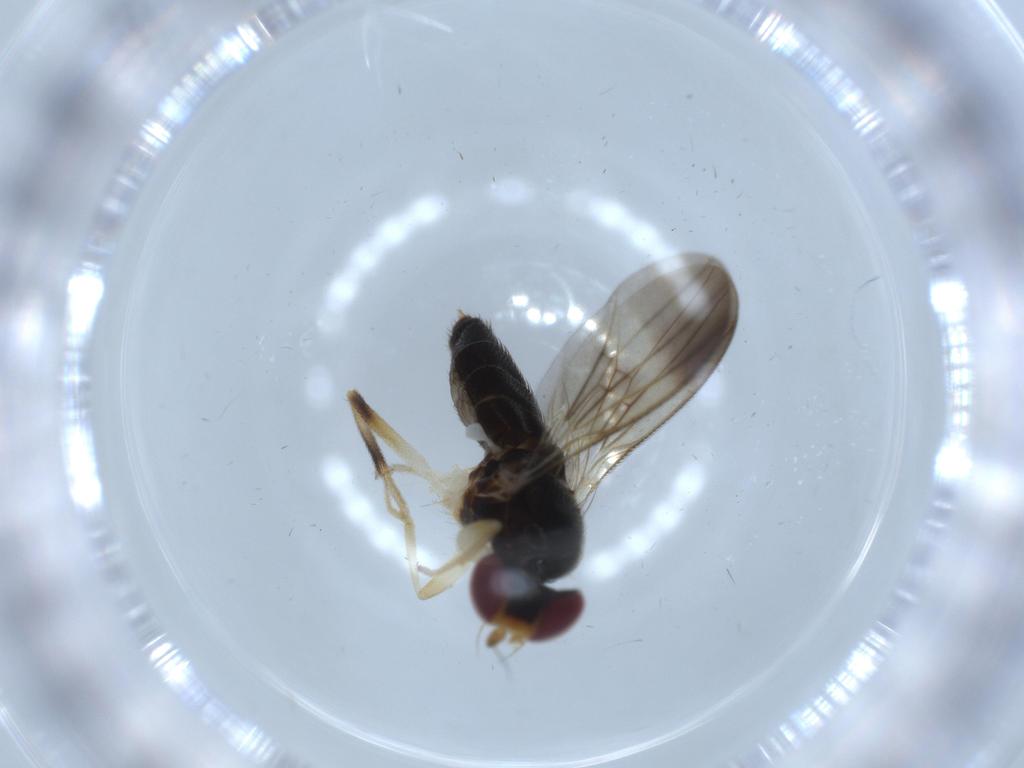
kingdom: Animalia
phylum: Arthropoda
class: Insecta
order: Diptera
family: Clusiidae
